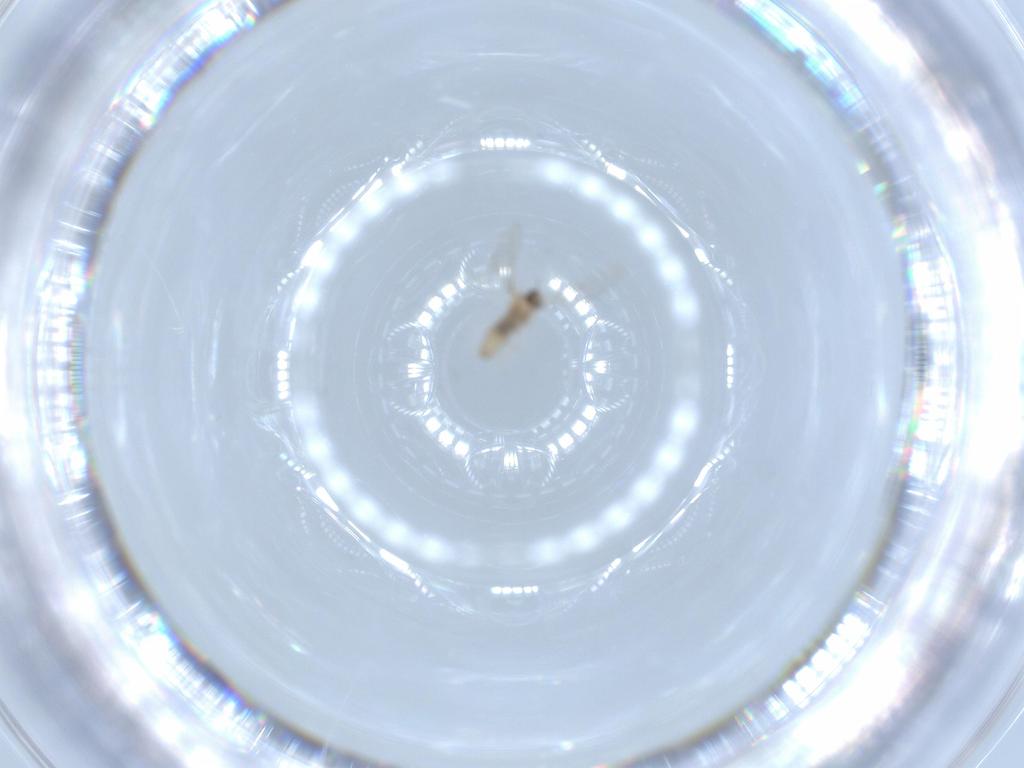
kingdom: Animalia
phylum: Arthropoda
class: Insecta
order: Diptera
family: Cecidomyiidae
